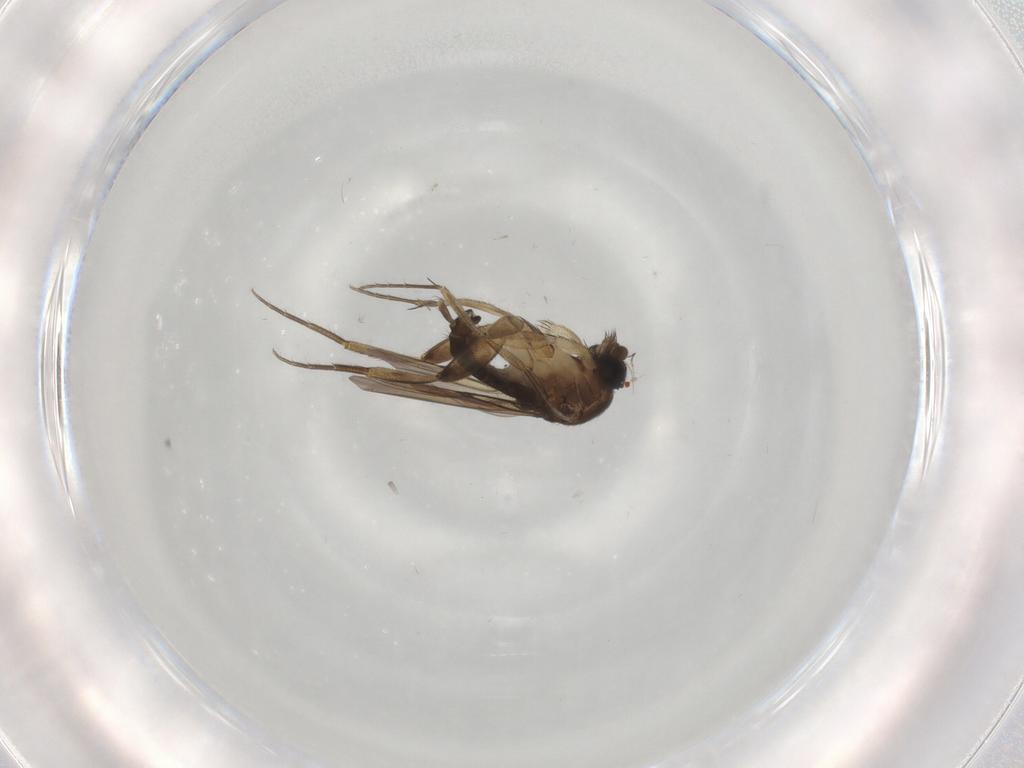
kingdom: Animalia
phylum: Arthropoda
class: Insecta
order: Diptera
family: Phoridae
